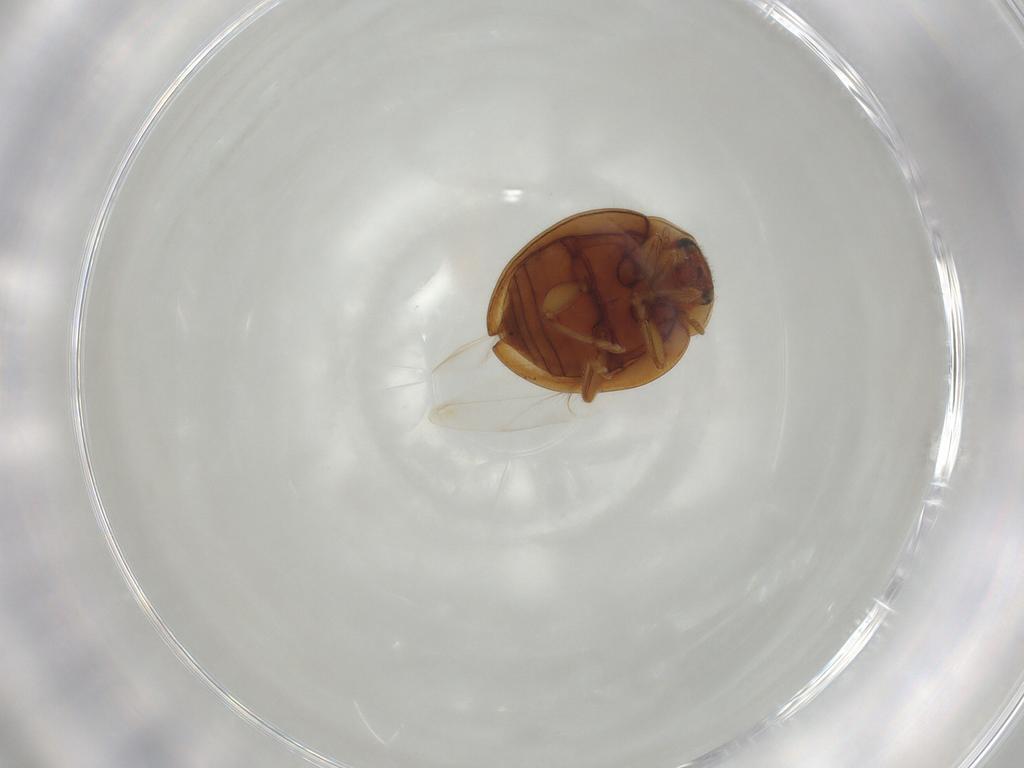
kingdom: Animalia
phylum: Arthropoda
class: Insecta
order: Coleoptera
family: Coccinellidae
